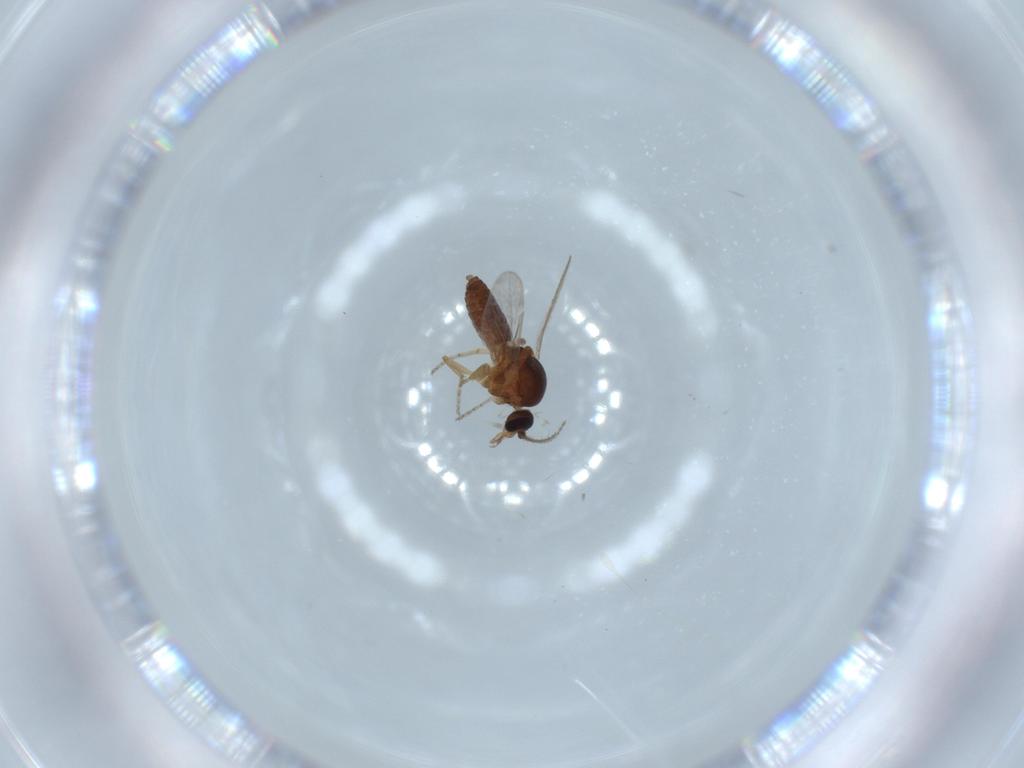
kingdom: Animalia
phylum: Arthropoda
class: Insecta
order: Diptera
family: Ceratopogonidae
